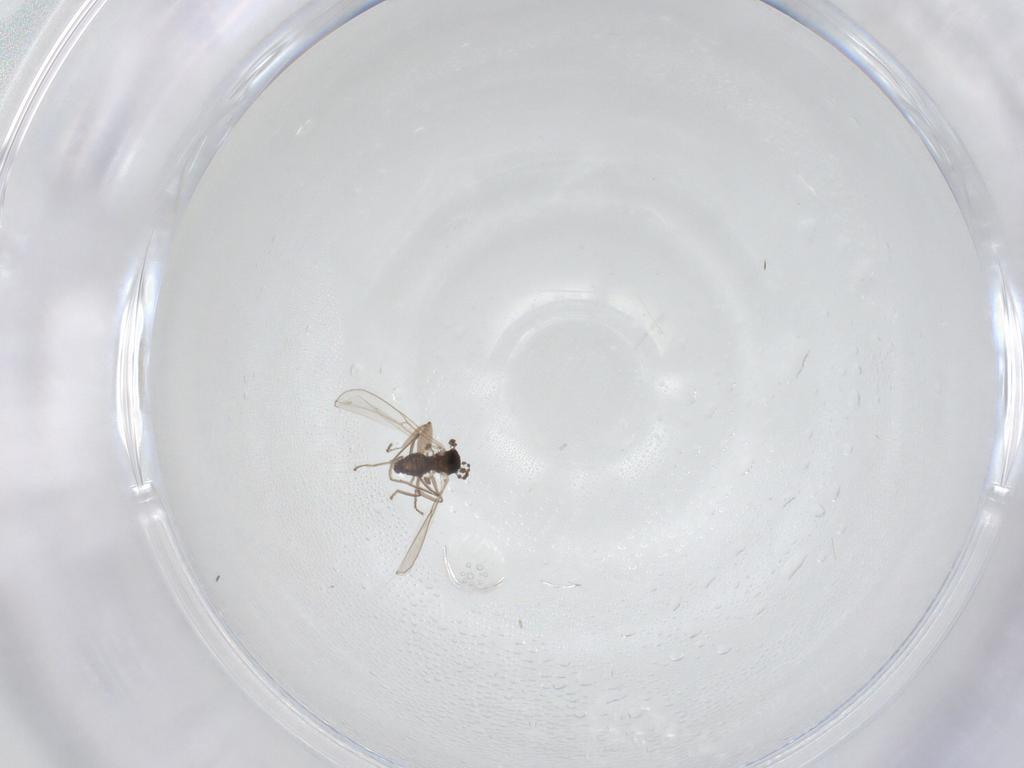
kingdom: Animalia
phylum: Arthropoda
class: Insecta
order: Diptera
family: Cecidomyiidae
